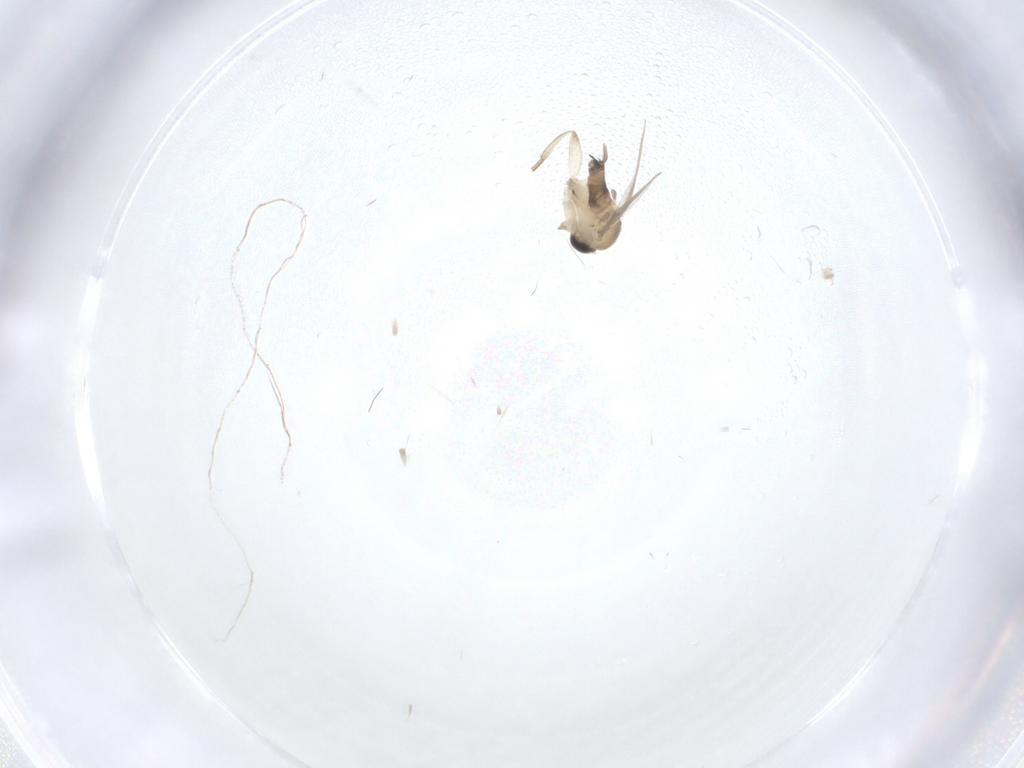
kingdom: Animalia
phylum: Arthropoda
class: Insecta
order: Diptera
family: Phoridae
